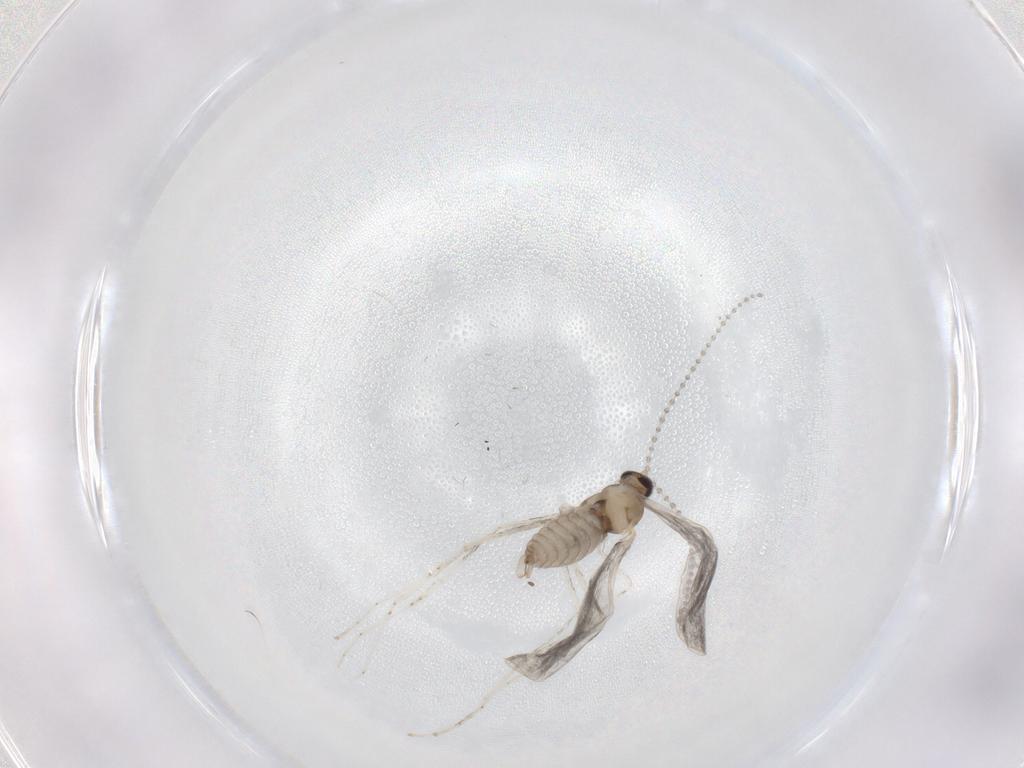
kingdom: Animalia
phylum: Arthropoda
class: Insecta
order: Diptera
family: Cecidomyiidae
